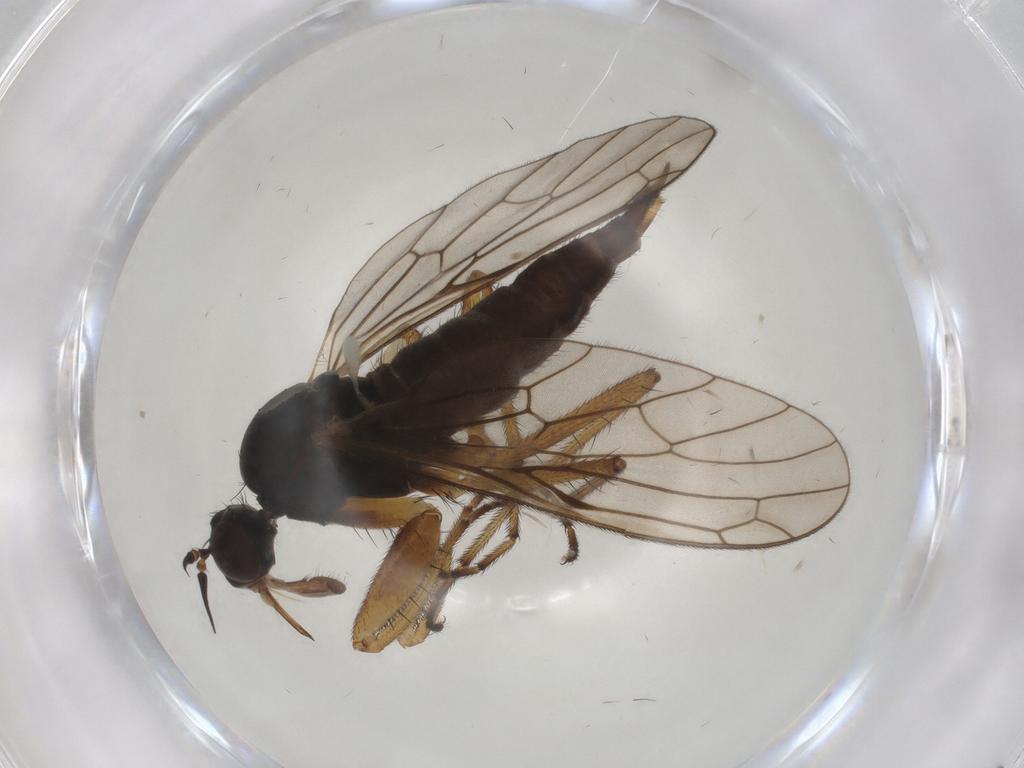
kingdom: Animalia
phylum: Arthropoda
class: Insecta
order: Diptera
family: Empididae
